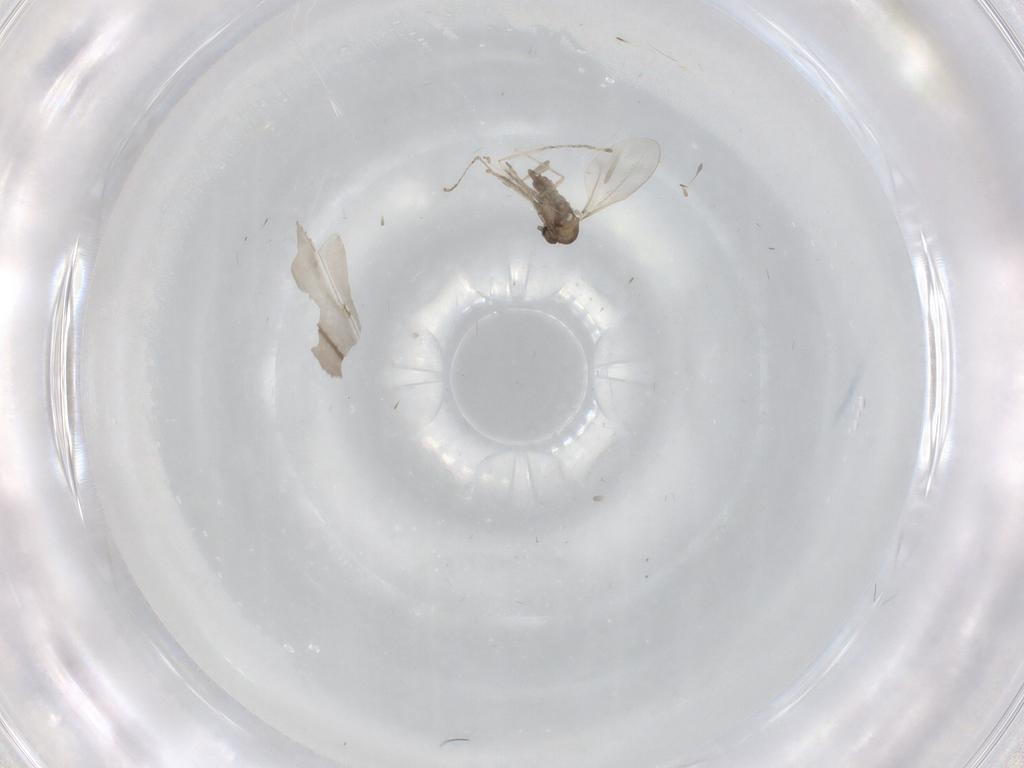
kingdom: Animalia
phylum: Arthropoda
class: Insecta
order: Diptera
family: Cecidomyiidae
